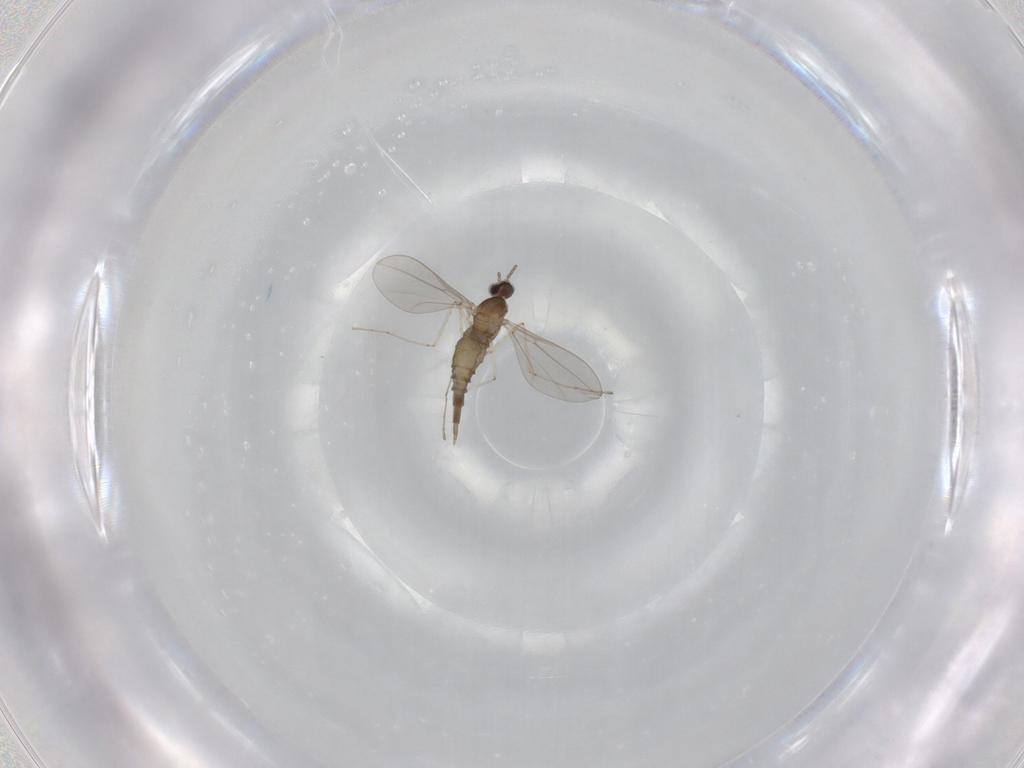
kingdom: Animalia
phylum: Arthropoda
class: Insecta
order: Diptera
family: Cecidomyiidae
